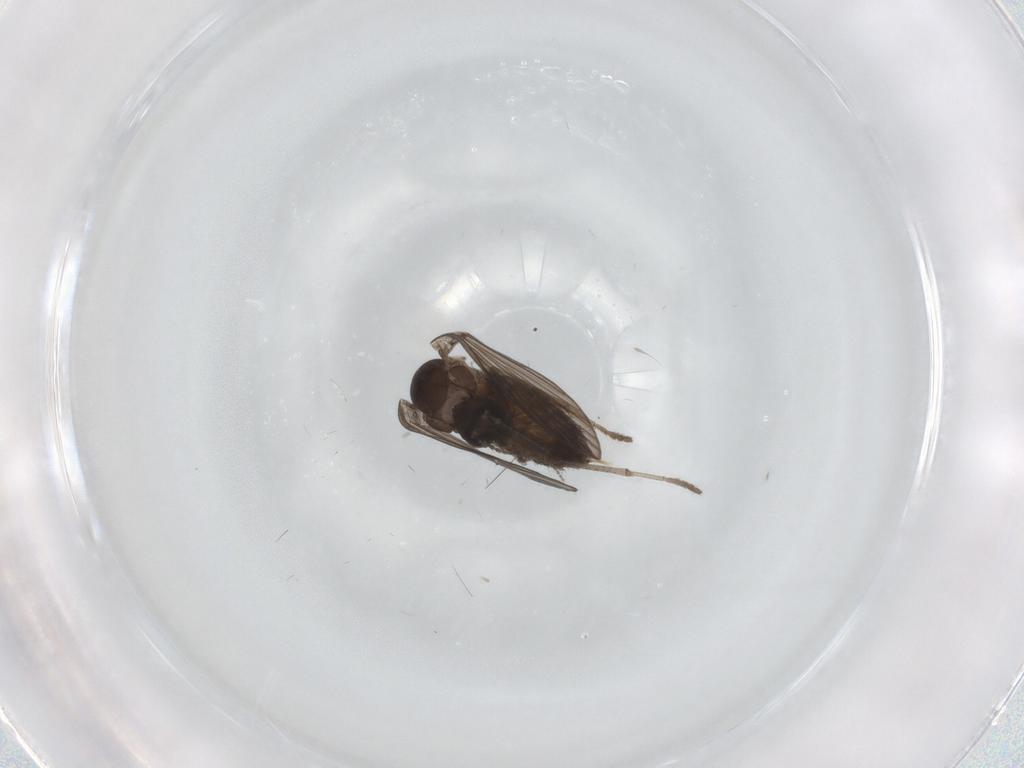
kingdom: Animalia
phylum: Arthropoda
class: Insecta
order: Diptera
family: Psychodidae
